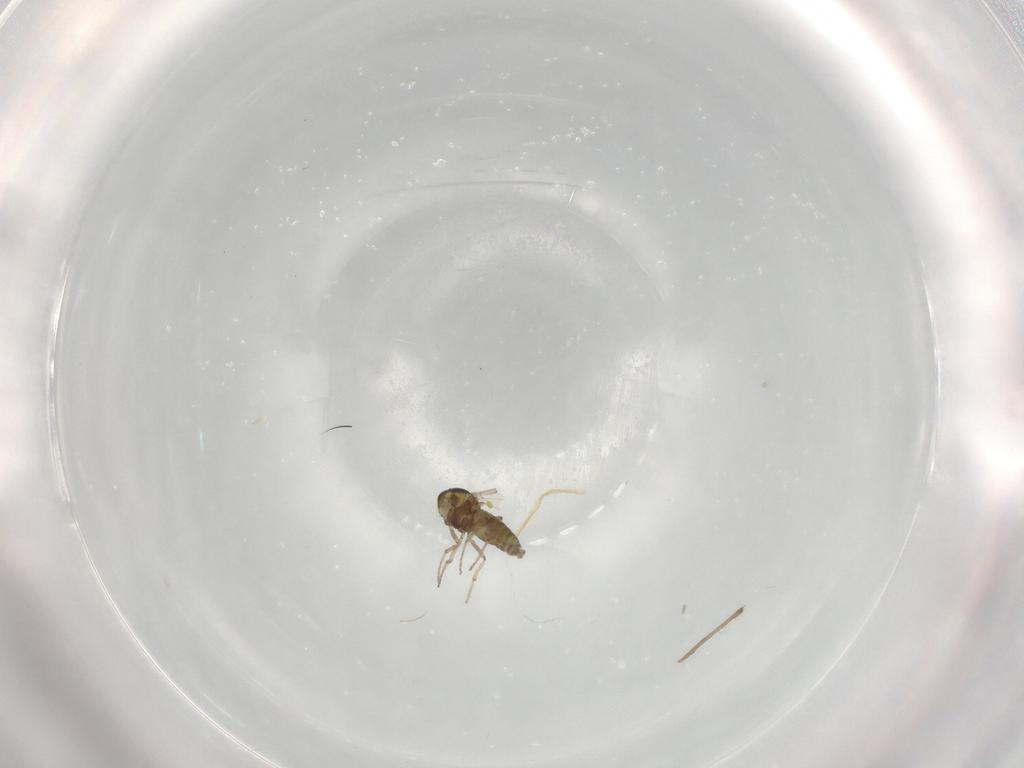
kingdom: Animalia
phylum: Arthropoda
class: Insecta
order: Diptera
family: Ceratopogonidae
